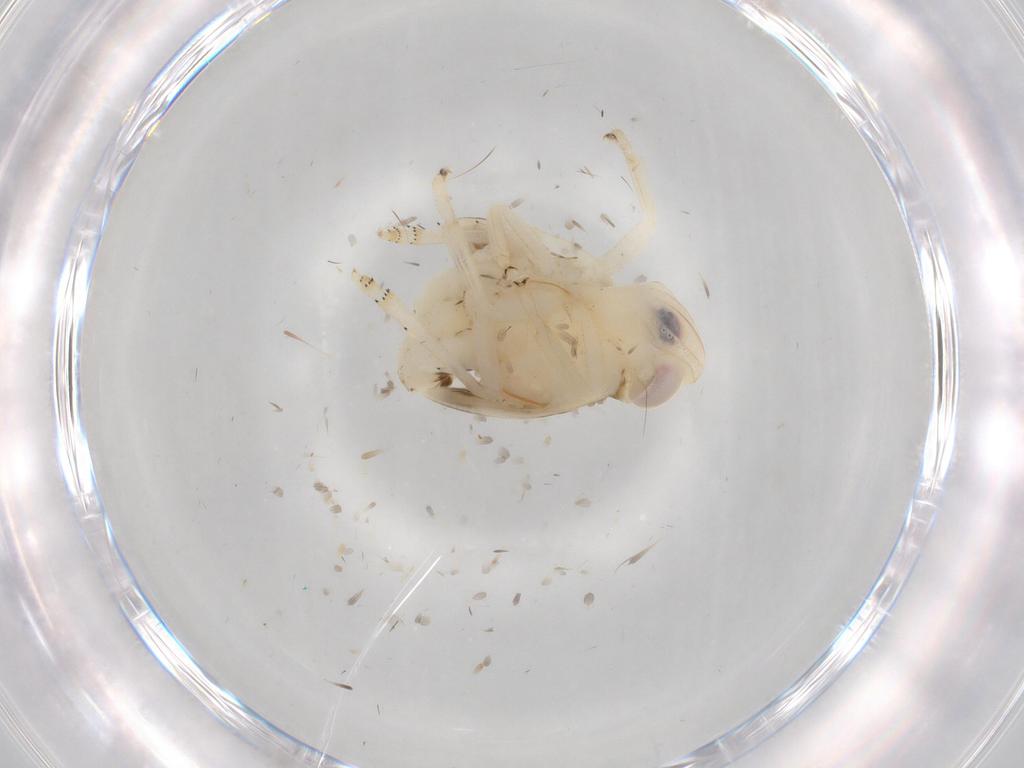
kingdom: Animalia
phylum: Arthropoda
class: Insecta
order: Hemiptera
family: Nogodinidae
